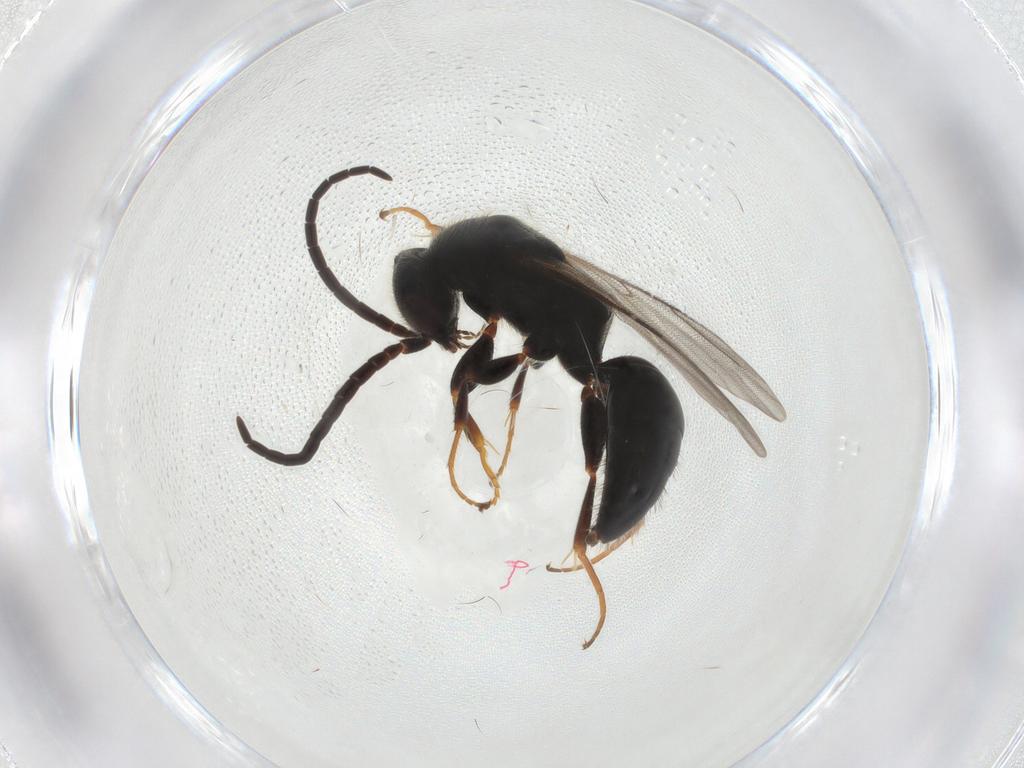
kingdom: Animalia
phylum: Arthropoda
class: Insecta
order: Hymenoptera
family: Bethylidae
